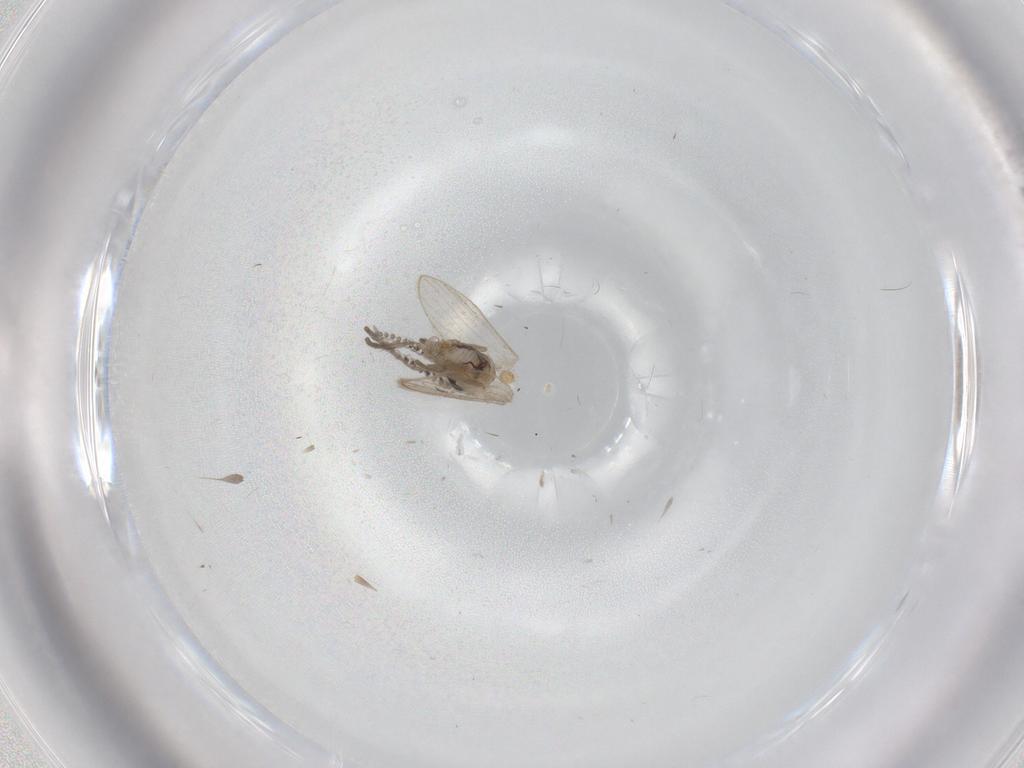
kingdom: Animalia
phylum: Arthropoda
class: Insecta
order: Diptera
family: Psychodidae
